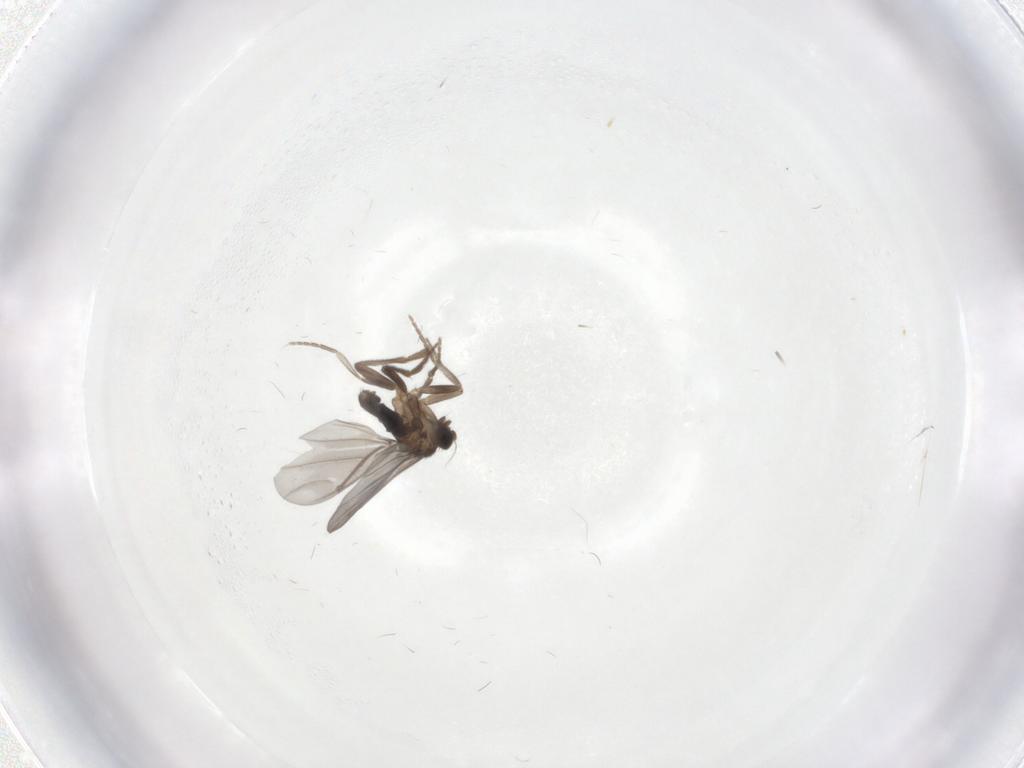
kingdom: Animalia
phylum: Arthropoda
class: Insecta
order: Diptera
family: Phoridae
